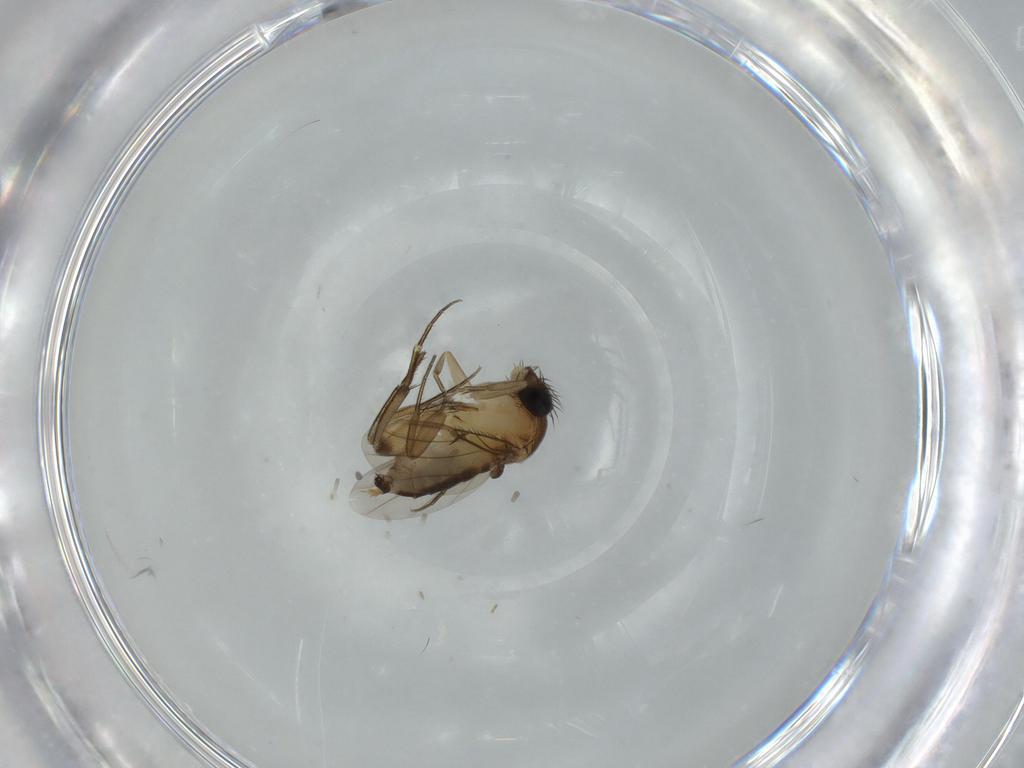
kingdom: Animalia
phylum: Arthropoda
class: Insecta
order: Diptera
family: Phoridae
